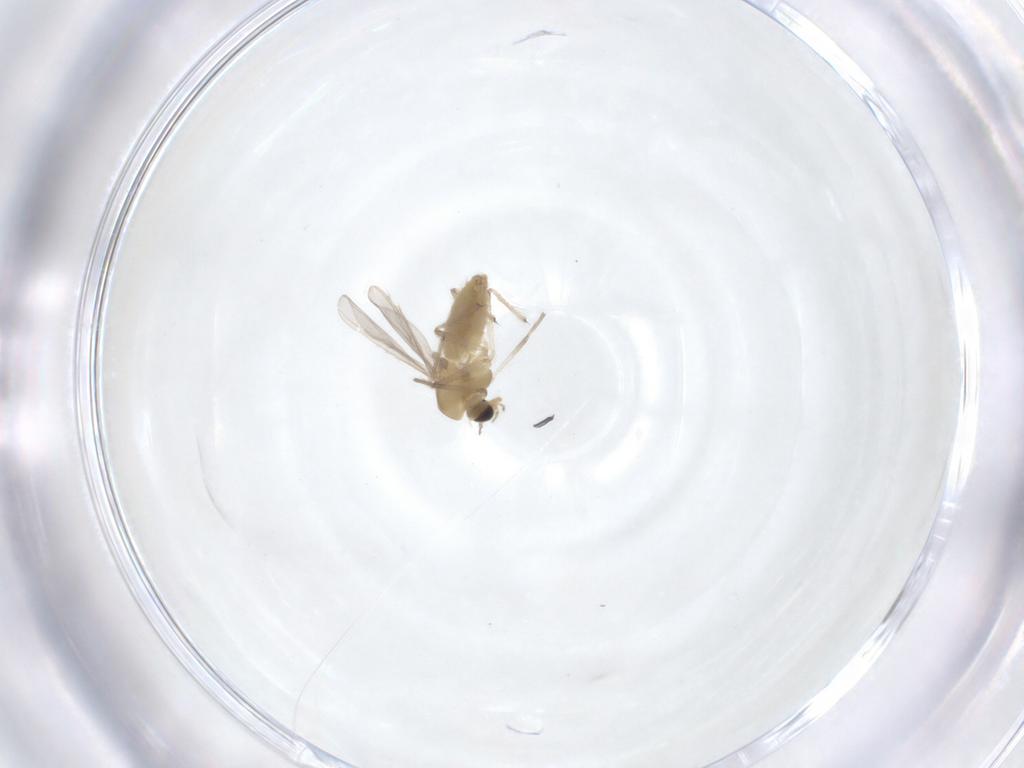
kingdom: Animalia
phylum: Arthropoda
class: Insecta
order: Diptera
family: Chironomidae
